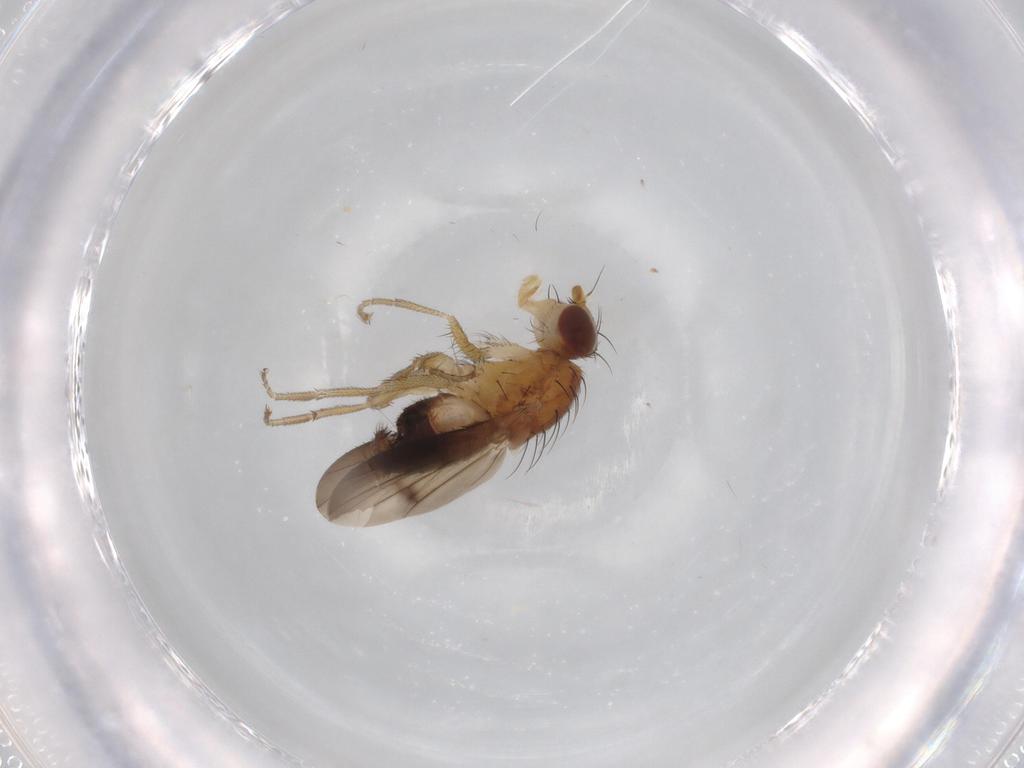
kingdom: Animalia
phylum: Arthropoda
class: Insecta
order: Diptera
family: Heleomyzidae
